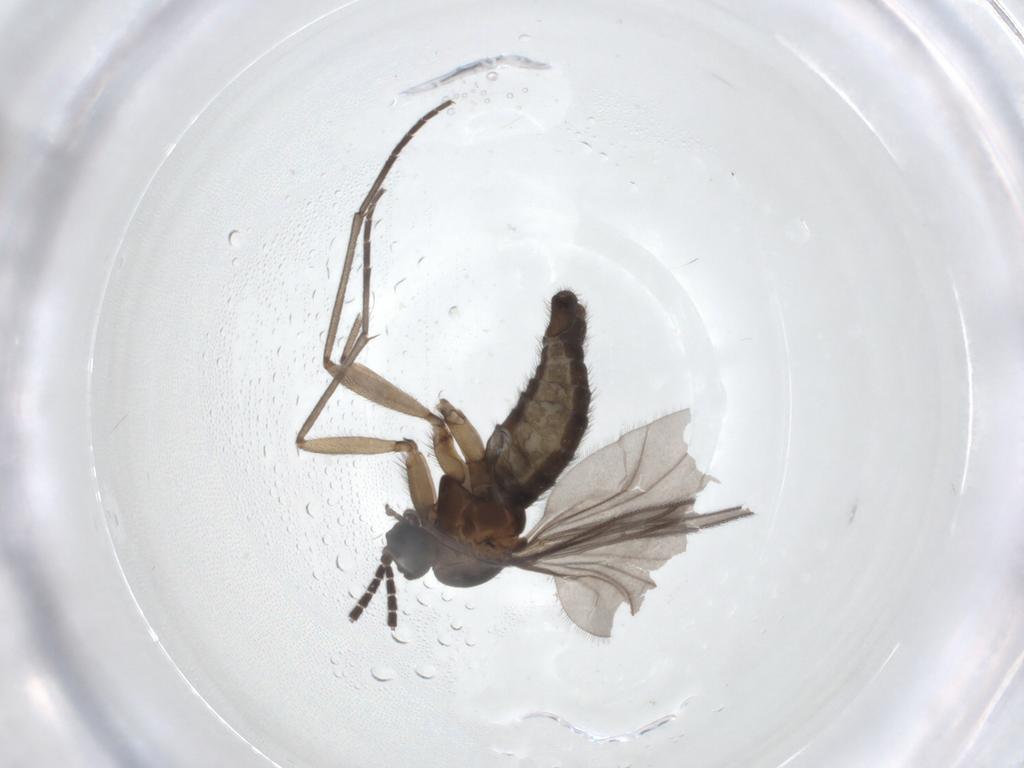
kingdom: Animalia
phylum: Arthropoda
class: Insecta
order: Diptera
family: Sciaridae
